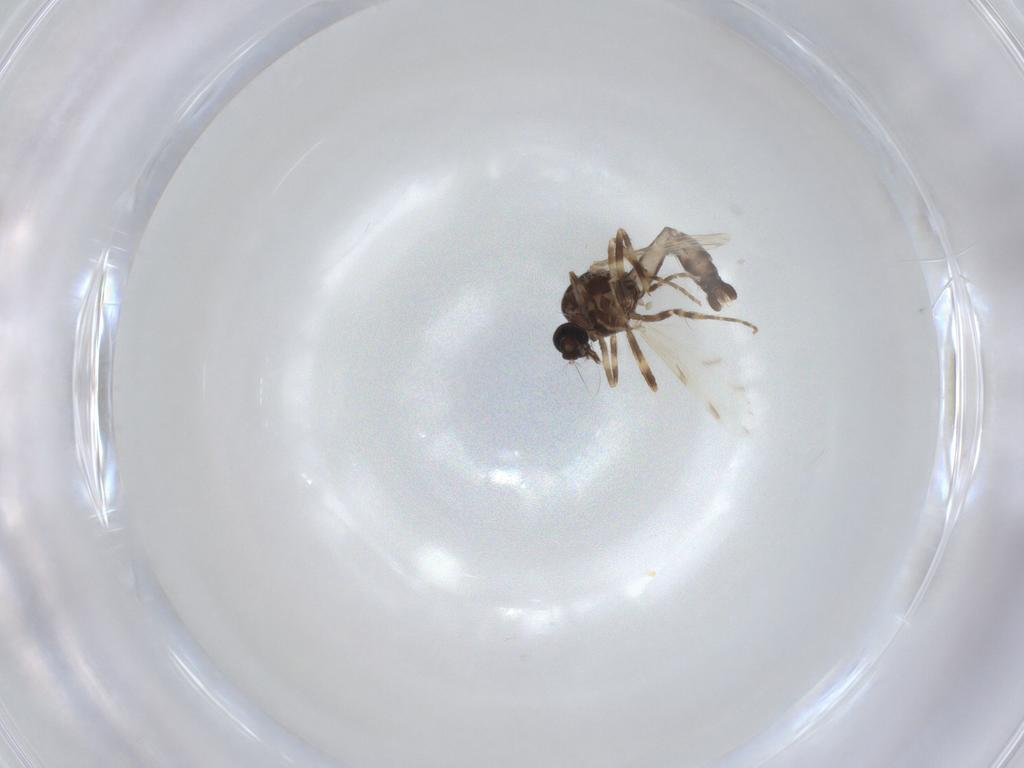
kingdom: Animalia
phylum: Arthropoda
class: Insecta
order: Diptera
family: Ceratopogonidae
